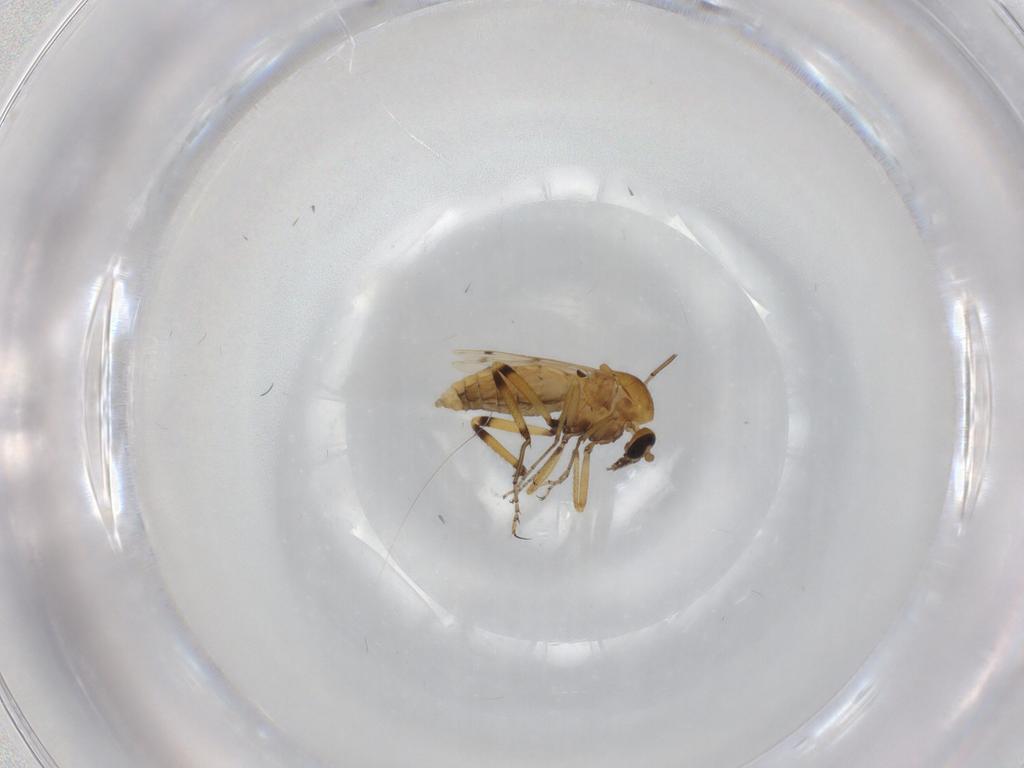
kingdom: Animalia
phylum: Arthropoda
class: Insecta
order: Diptera
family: Ceratopogonidae
